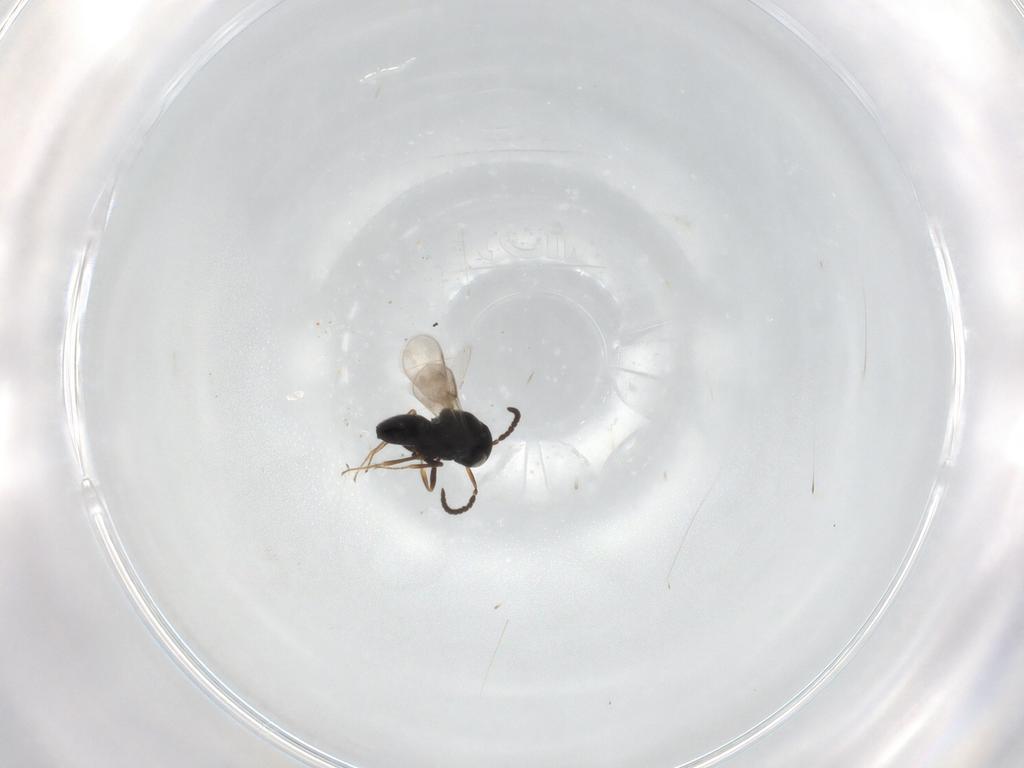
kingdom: Animalia
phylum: Arthropoda
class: Insecta
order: Hymenoptera
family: Scelionidae
